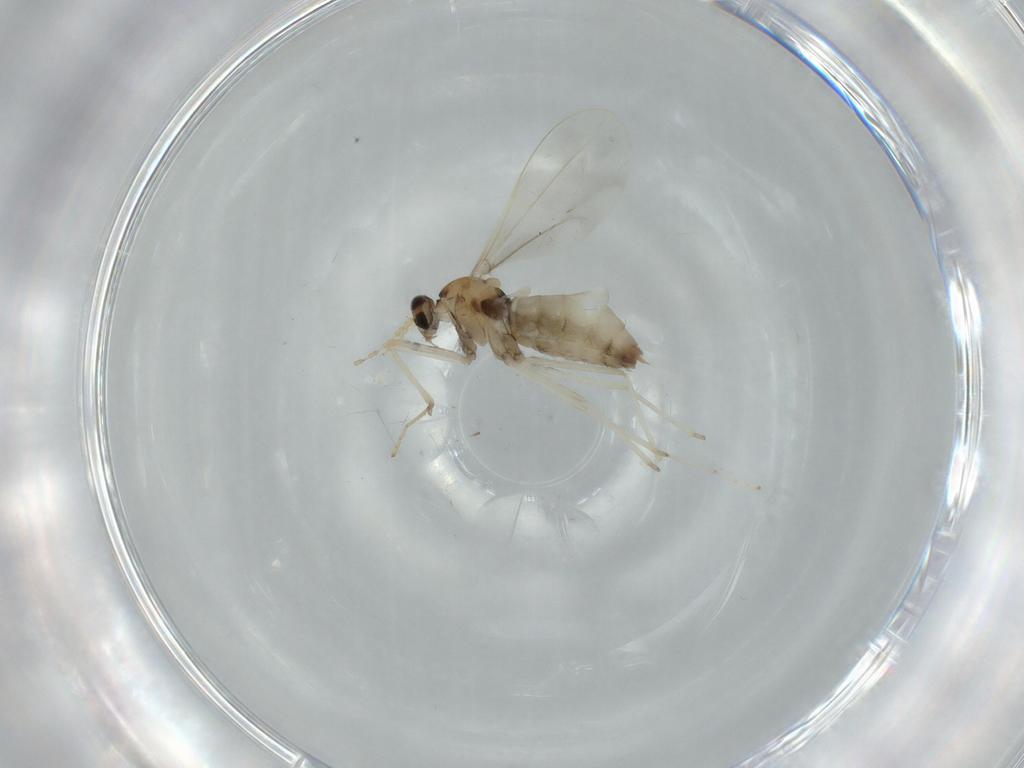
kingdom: Animalia
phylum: Arthropoda
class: Insecta
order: Diptera
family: Cecidomyiidae
